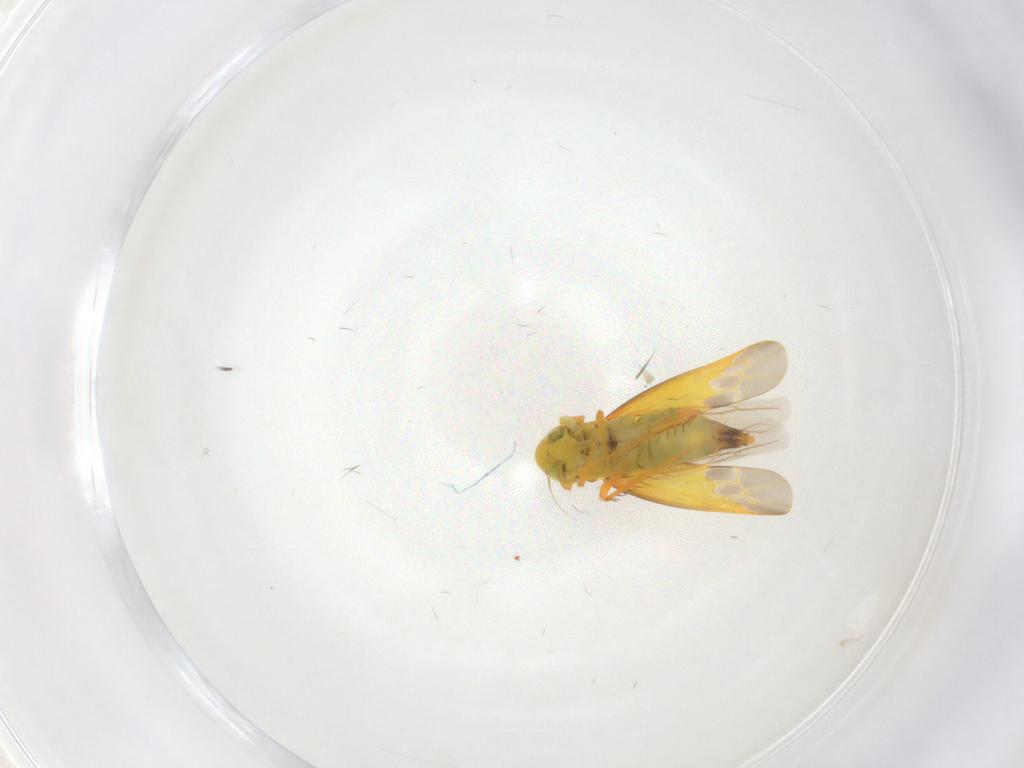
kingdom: Animalia
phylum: Arthropoda
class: Insecta
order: Hemiptera
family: Cicadellidae
